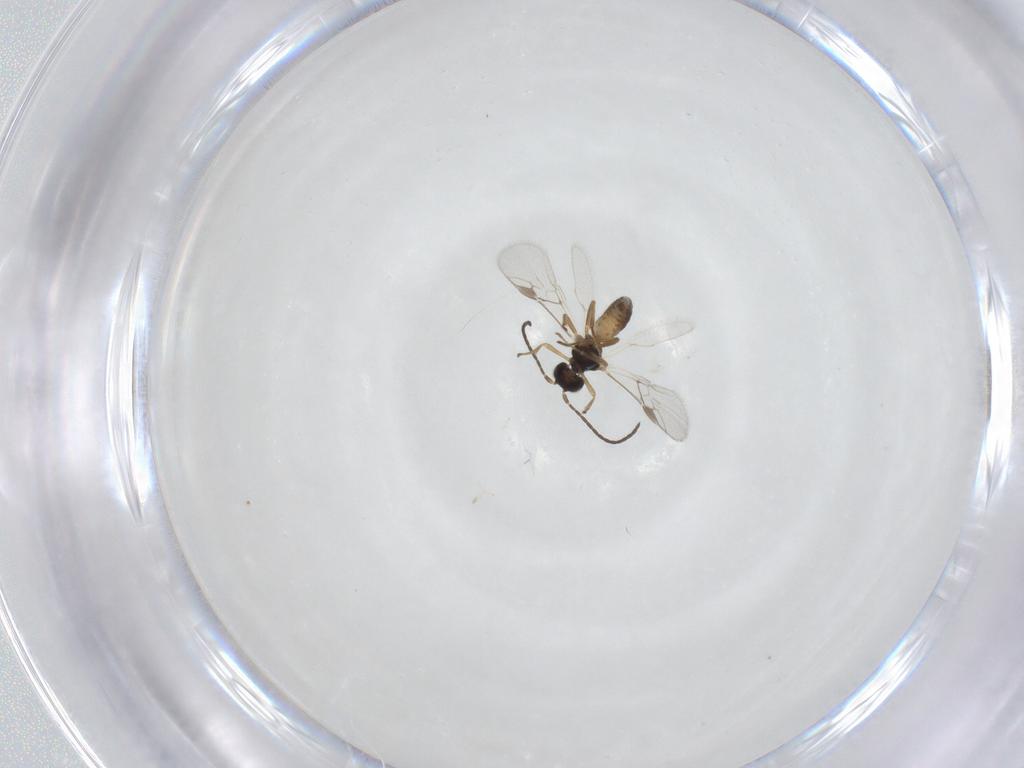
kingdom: Animalia
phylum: Arthropoda
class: Insecta
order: Hymenoptera
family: Braconidae
